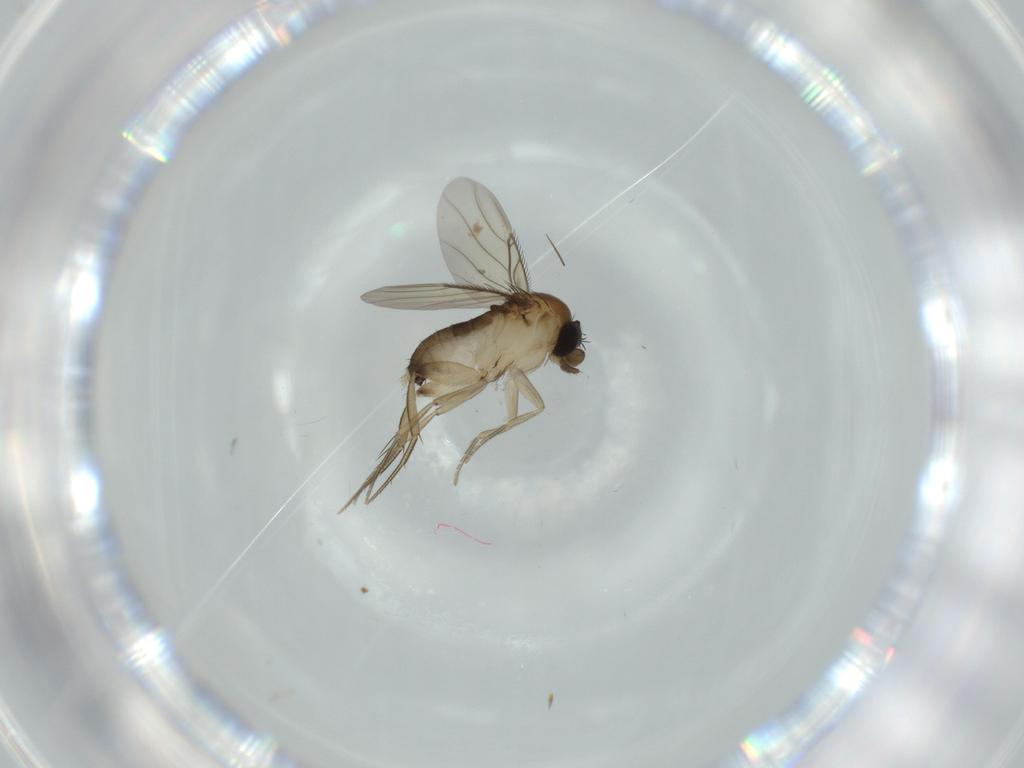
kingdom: Animalia
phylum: Arthropoda
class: Insecta
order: Diptera
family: Phoridae
